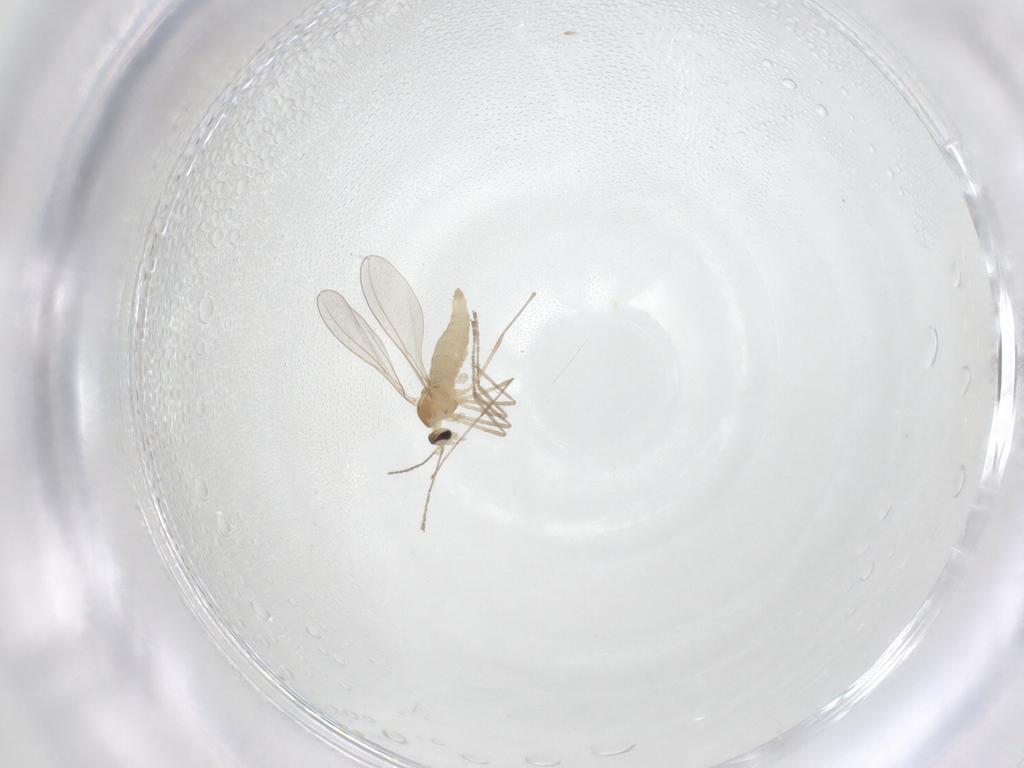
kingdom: Animalia
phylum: Arthropoda
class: Insecta
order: Diptera
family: Cecidomyiidae
